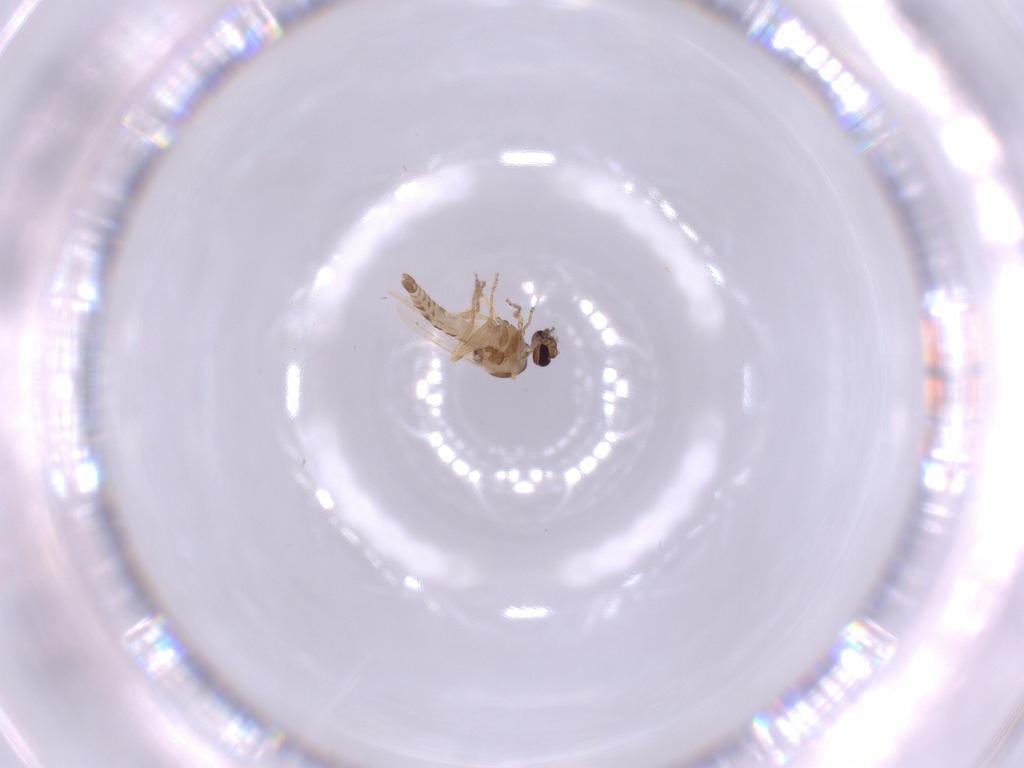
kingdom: Animalia
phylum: Arthropoda
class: Insecta
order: Diptera
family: Ceratopogonidae
